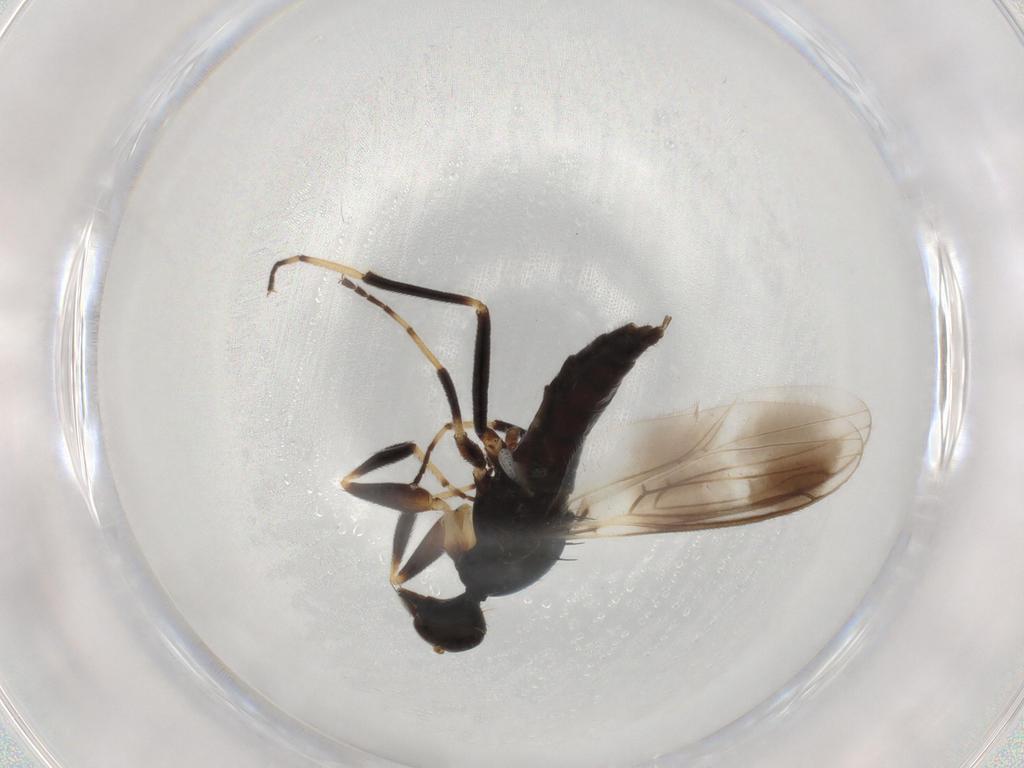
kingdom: Animalia
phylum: Arthropoda
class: Insecta
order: Diptera
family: Hybotidae
